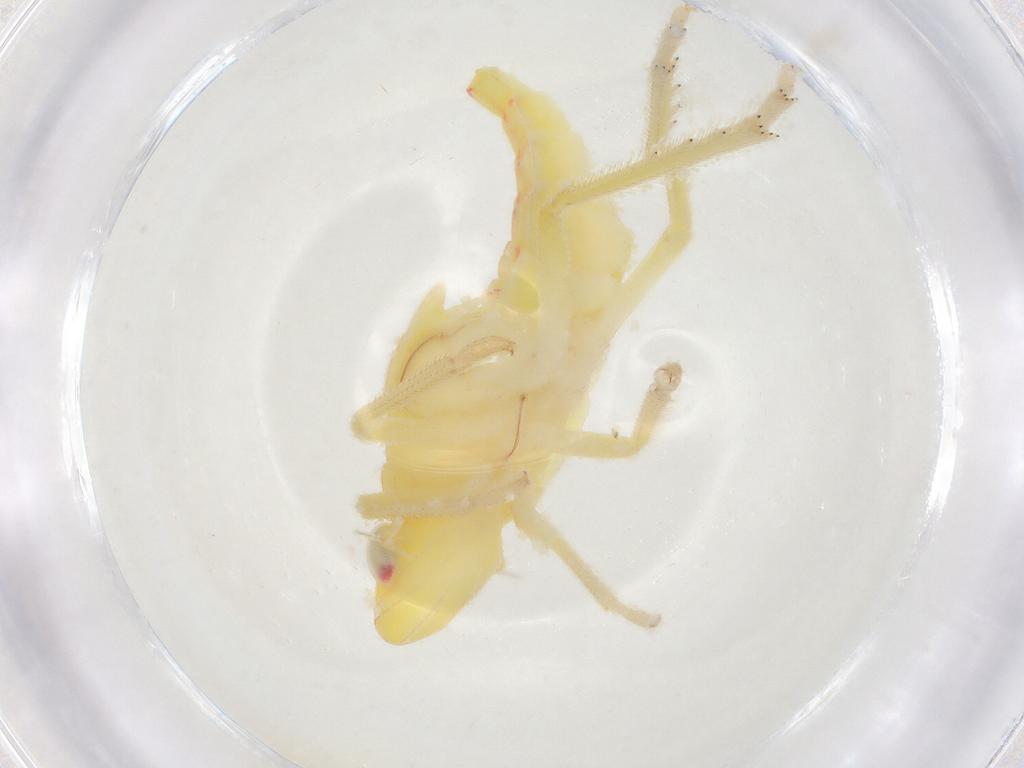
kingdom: Animalia
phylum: Arthropoda
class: Insecta
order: Hemiptera
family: Tropiduchidae
